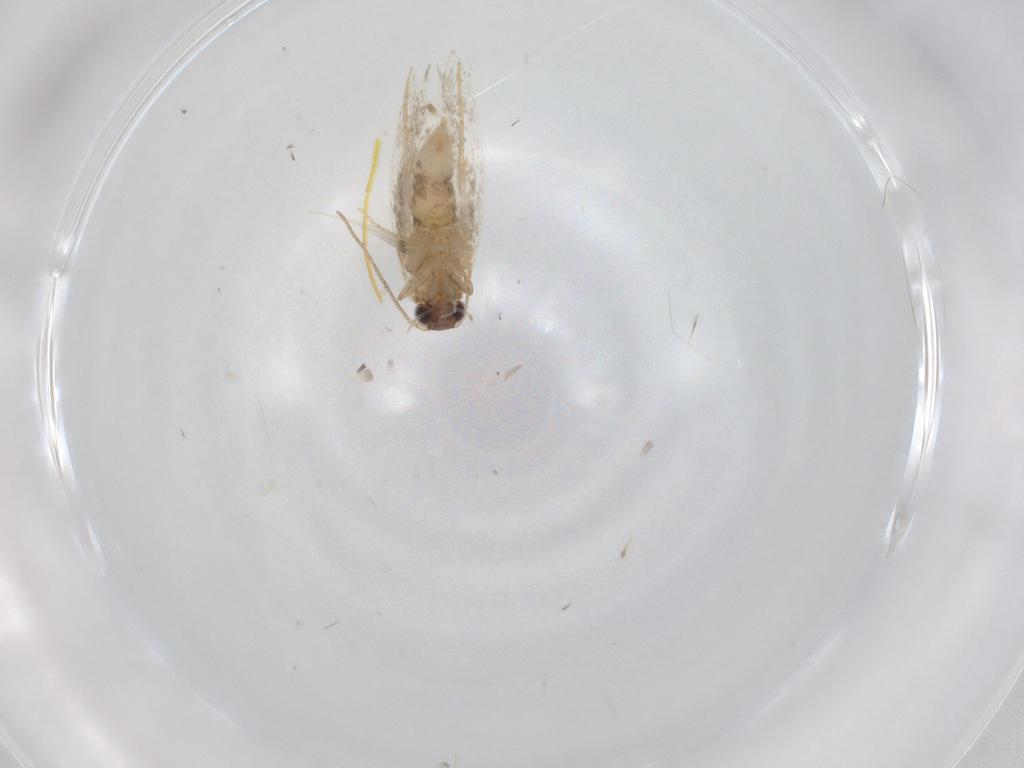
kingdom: Animalia
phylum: Arthropoda
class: Insecta
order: Lepidoptera
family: Tineidae
